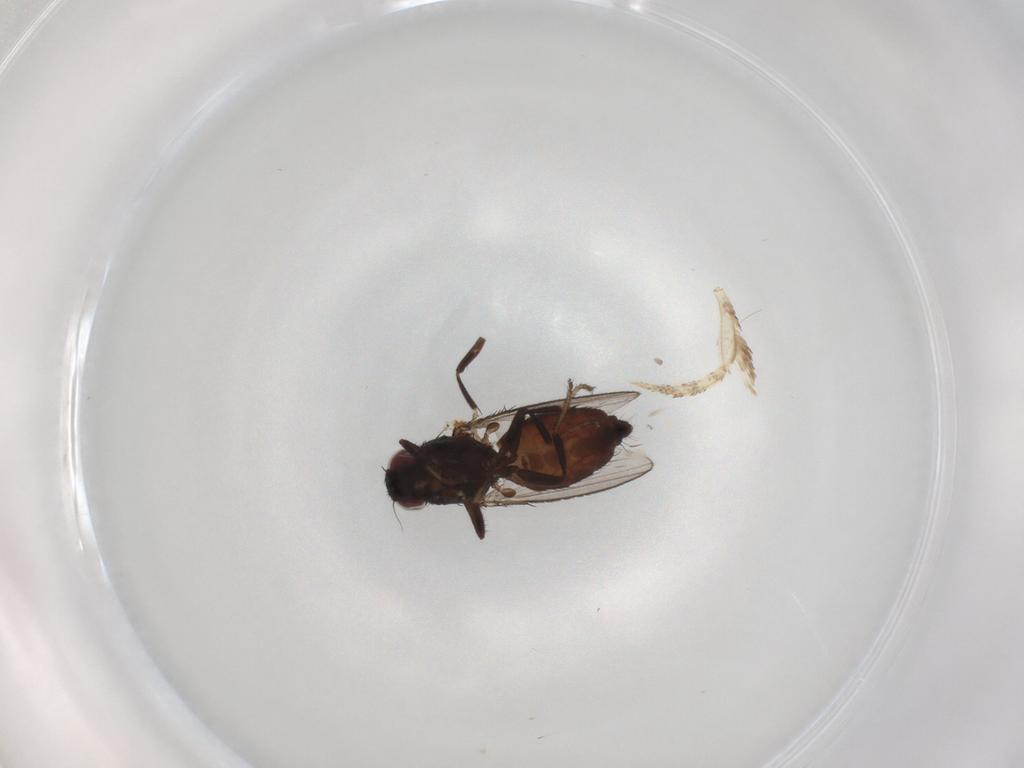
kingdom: Animalia
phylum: Arthropoda
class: Insecta
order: Diptera
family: Milichiidae
